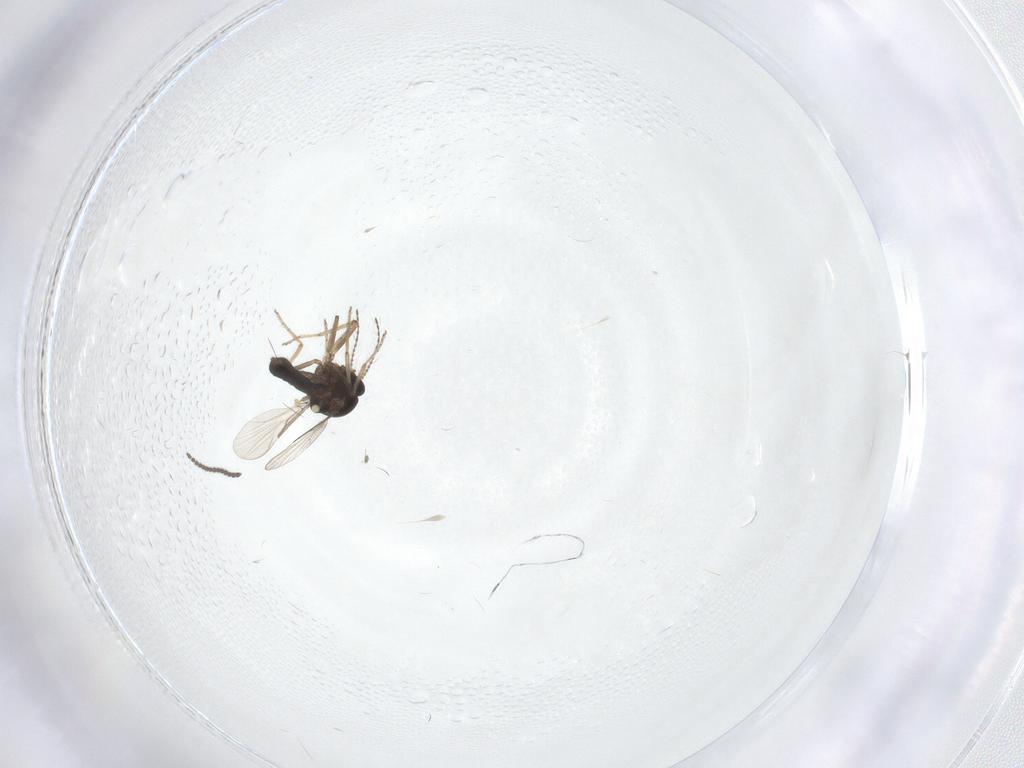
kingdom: Animalia
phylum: Arthropoda
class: Insecta
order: Diptera
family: Ceratopogonidae
